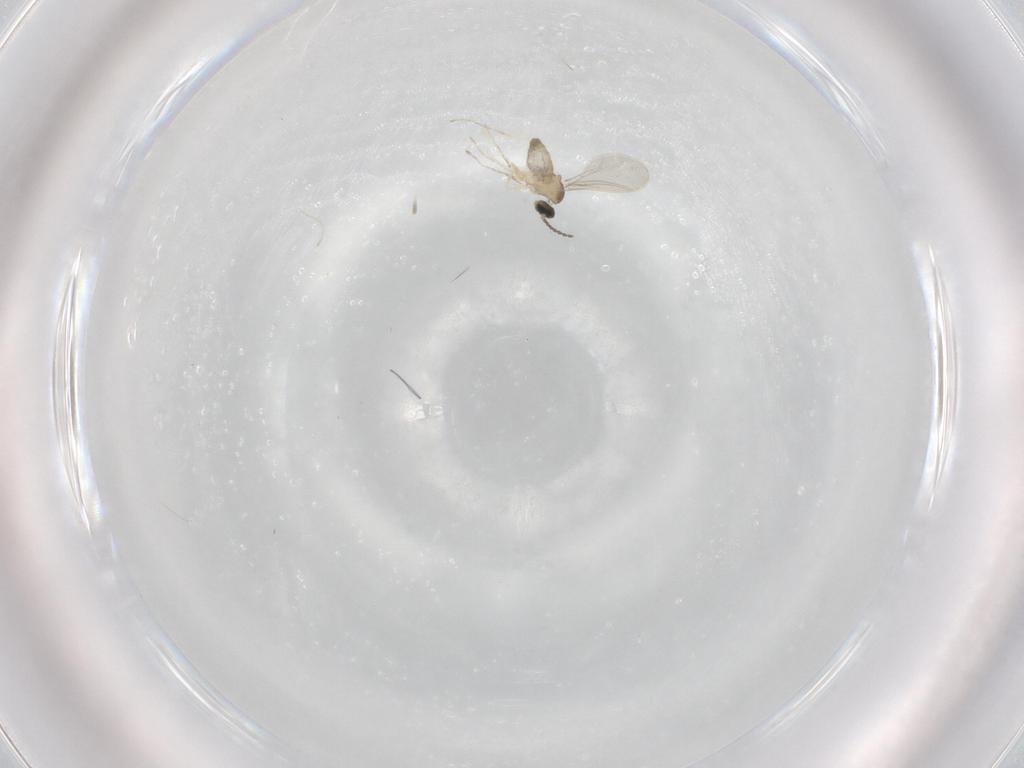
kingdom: Animalia
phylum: Arthropoda
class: Insecta
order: Diptera
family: Cecidomyiidae
